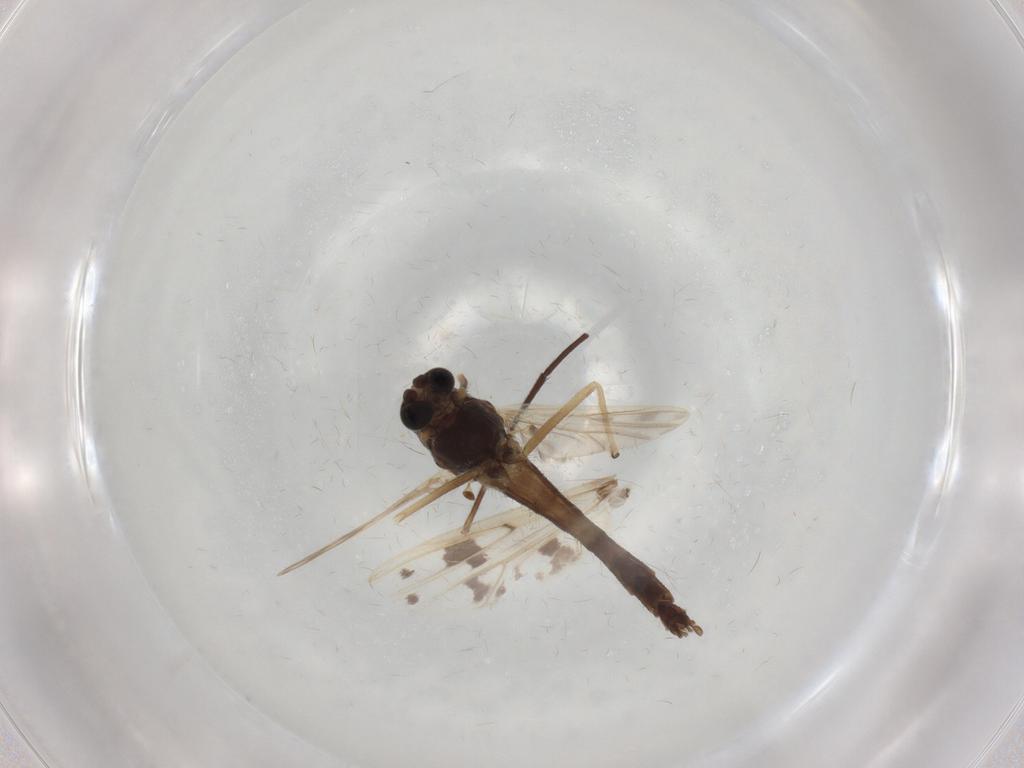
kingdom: Animalia
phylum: Arthropoda
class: Insecta
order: Diptera
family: Chironomidae
